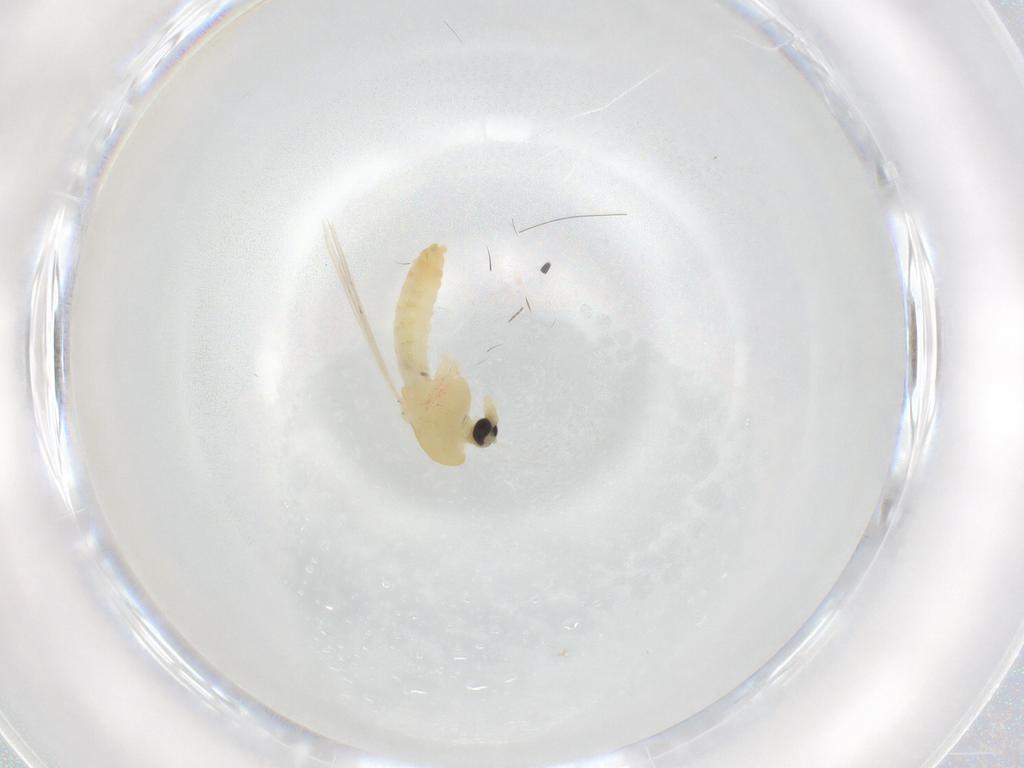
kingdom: Animalia
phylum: Arthropoda
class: Insecta
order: Diptera
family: Chironomidae
